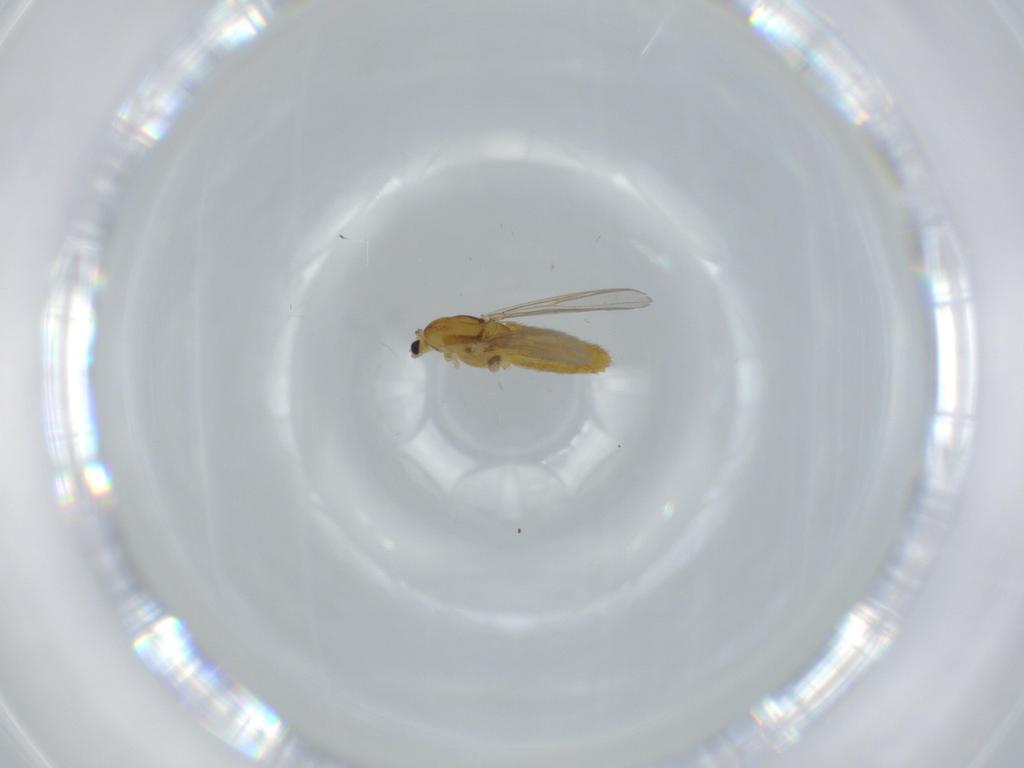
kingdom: Animalia
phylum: Arthropoda
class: Insecta
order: Diptera
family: Chironomidae
